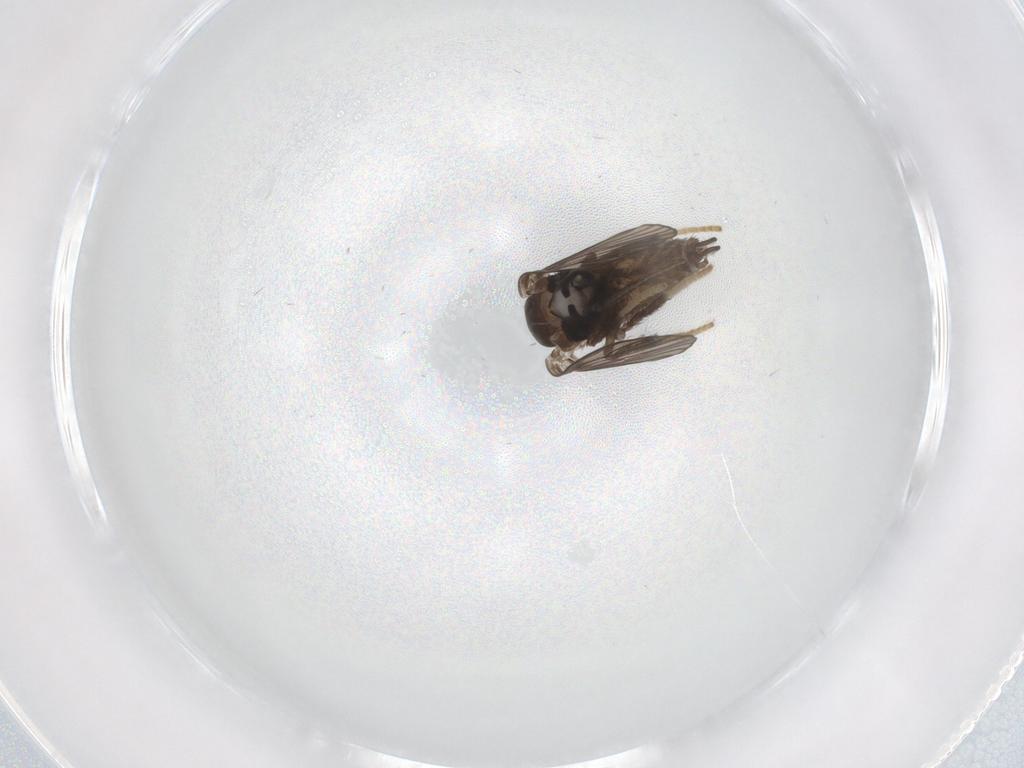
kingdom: Animalia
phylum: Arthropoda
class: Insecta
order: Diptera
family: Psychodidae
